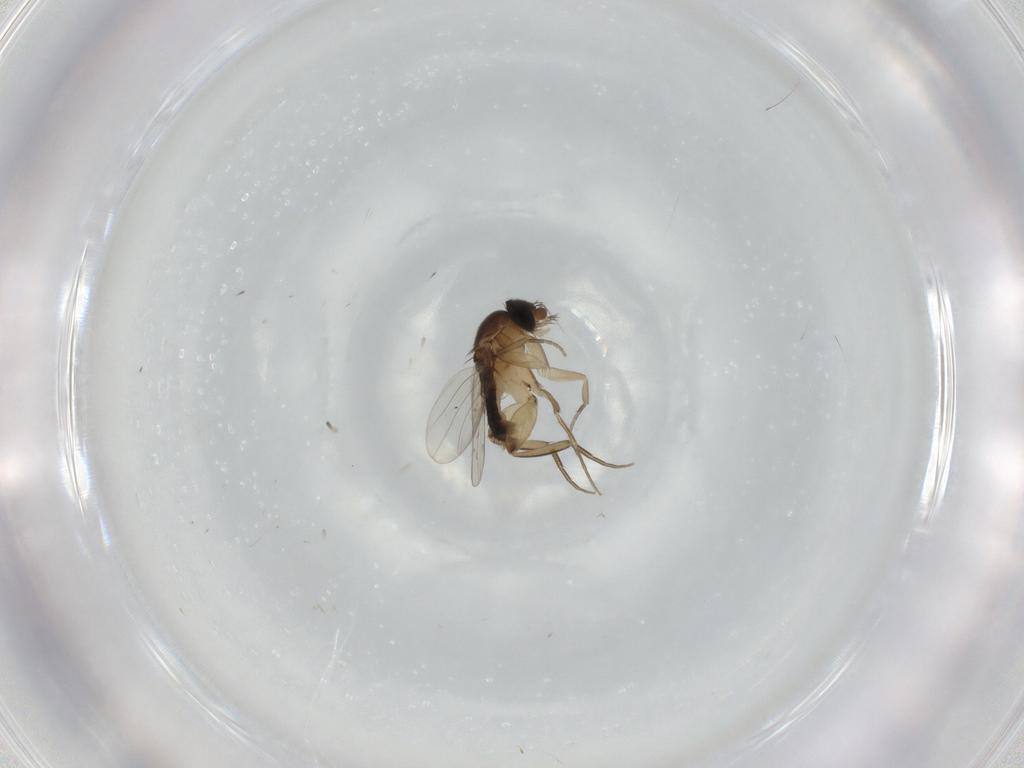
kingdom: Animalia
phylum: Arthropoda
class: Insecta
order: Diptera
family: Phoridae
